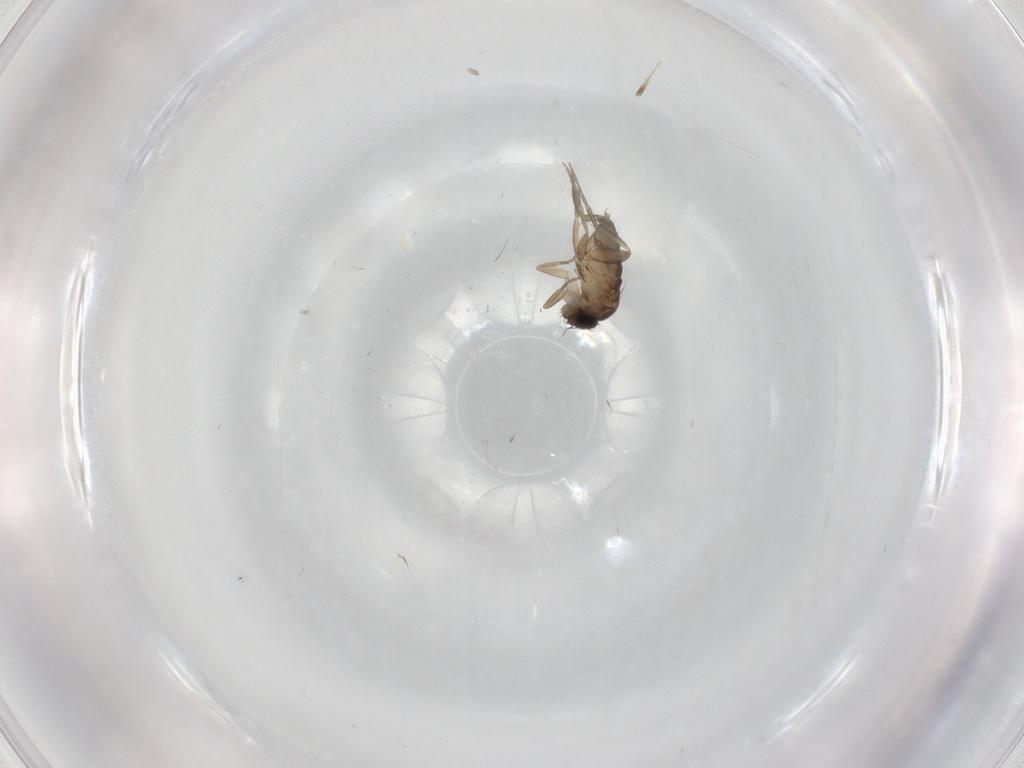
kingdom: Animalia
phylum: Arthropoda
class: Insecta
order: Diptera
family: Phoridae
